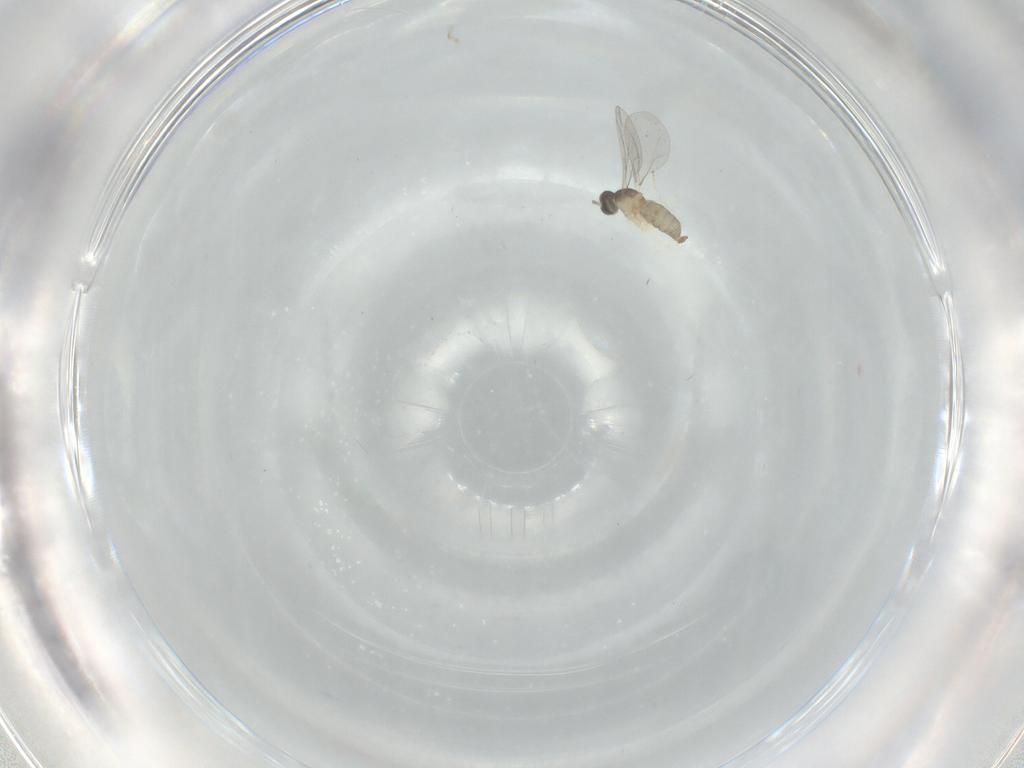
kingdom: Animalia
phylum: Arthropoda
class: Insecta
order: Diptera
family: Cecidomyiidae
